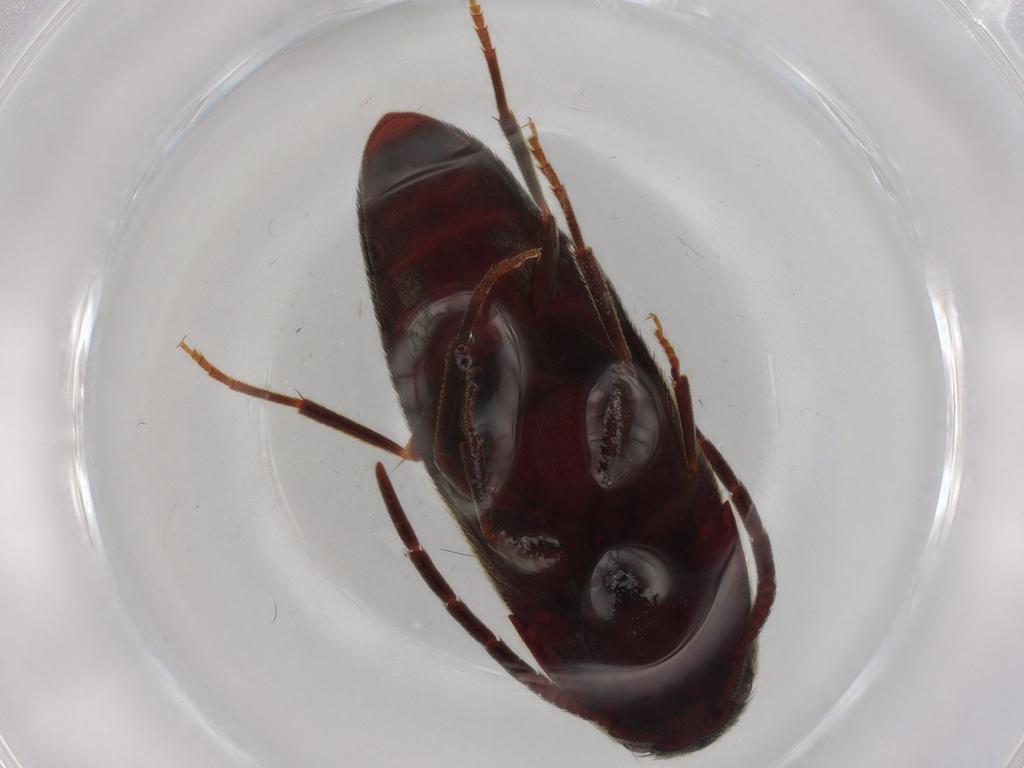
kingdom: Animalia
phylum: Arthropoda
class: Insecta
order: Coleoptera
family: Eucnemidae
